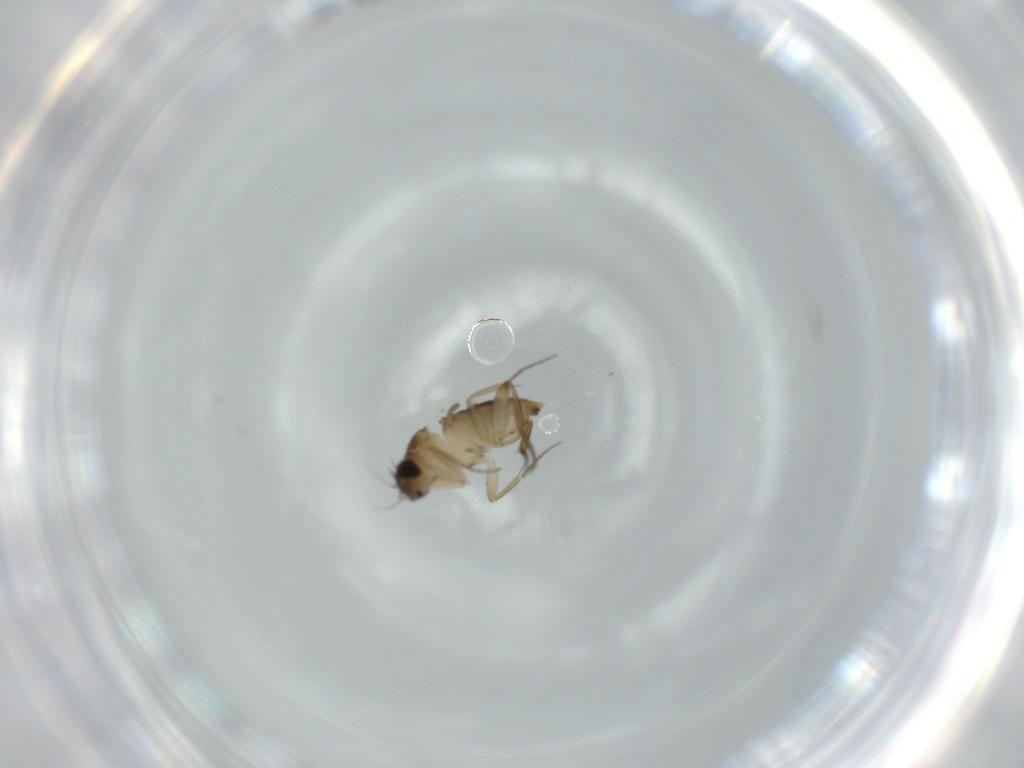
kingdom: Animalia
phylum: Arthropoda
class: Insecta
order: Diptera
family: Phoridae
